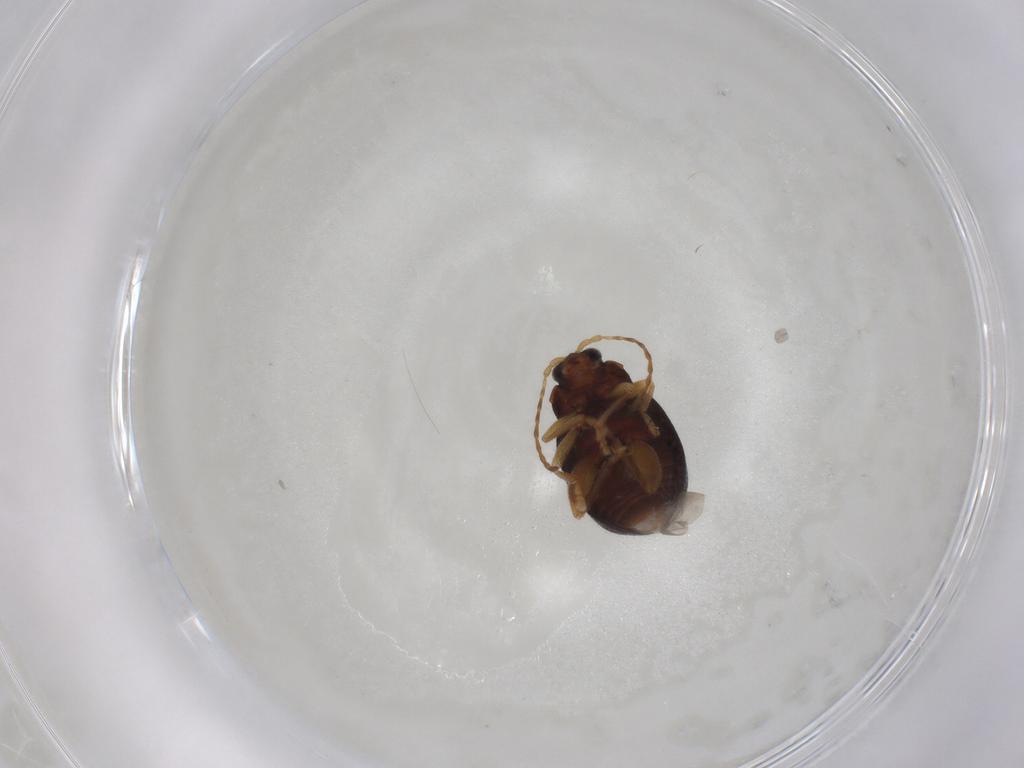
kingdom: Animalia
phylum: Arthropoda
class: Insecta
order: Coleoptera
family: Chrysomelidae
